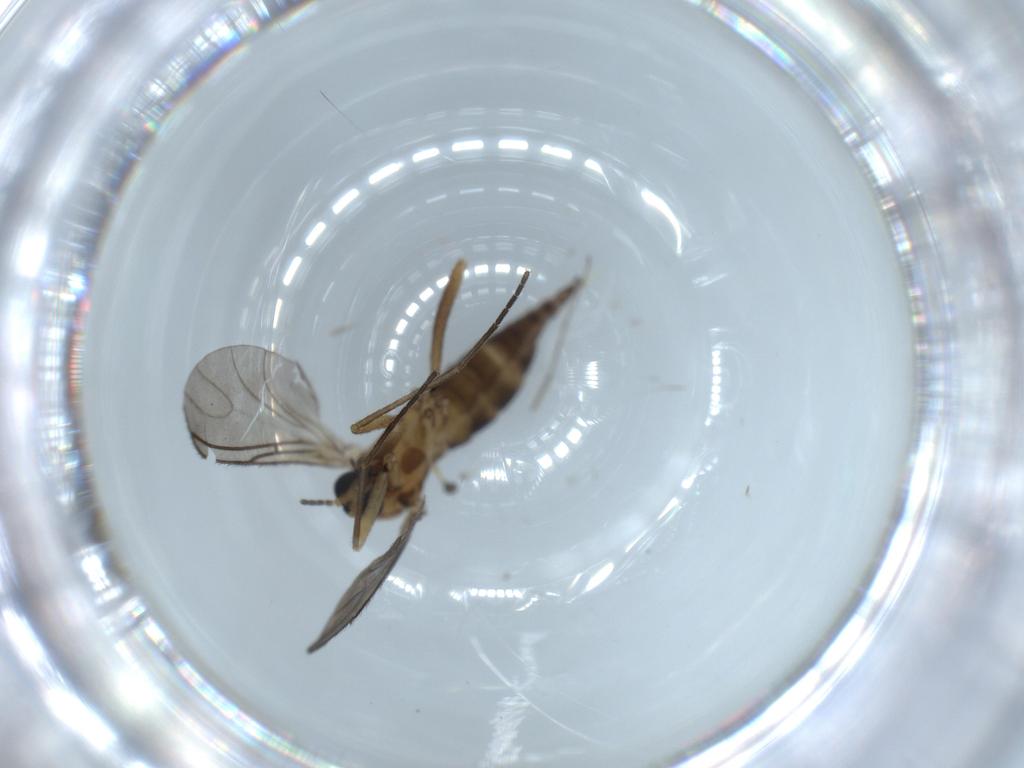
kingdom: Animalia
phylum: Arthropoda
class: Insecta
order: Diptera
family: Sciaridae
